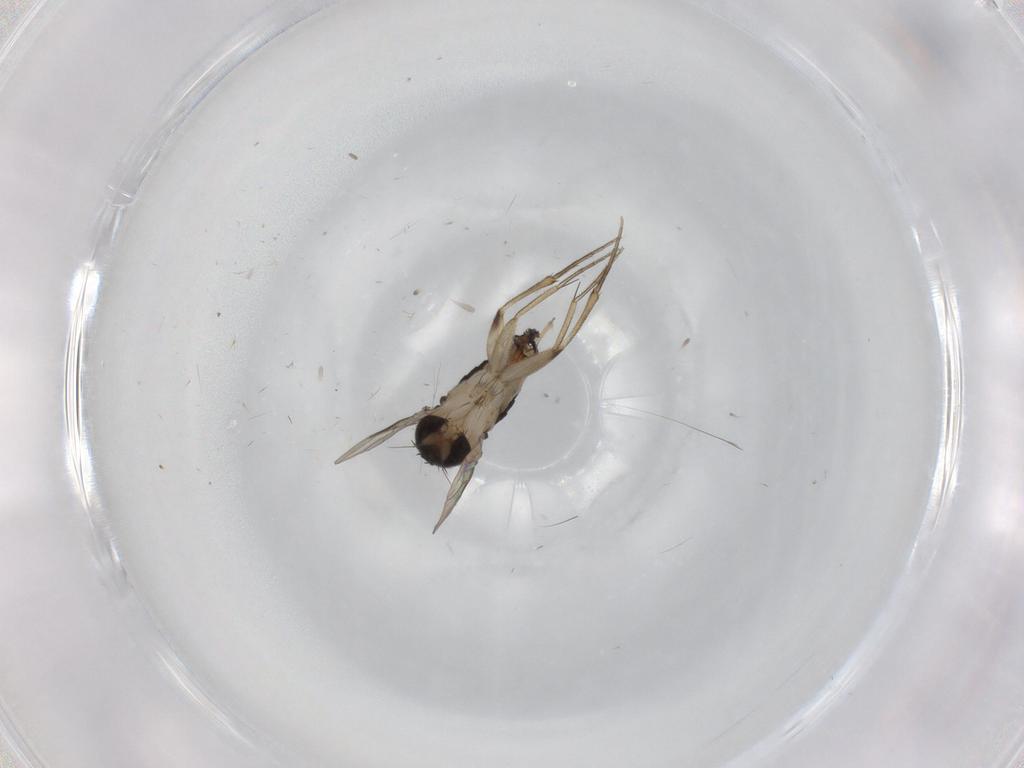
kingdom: Animalia
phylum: Arthropoda
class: Insecta
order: Diptera
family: Phoridae
